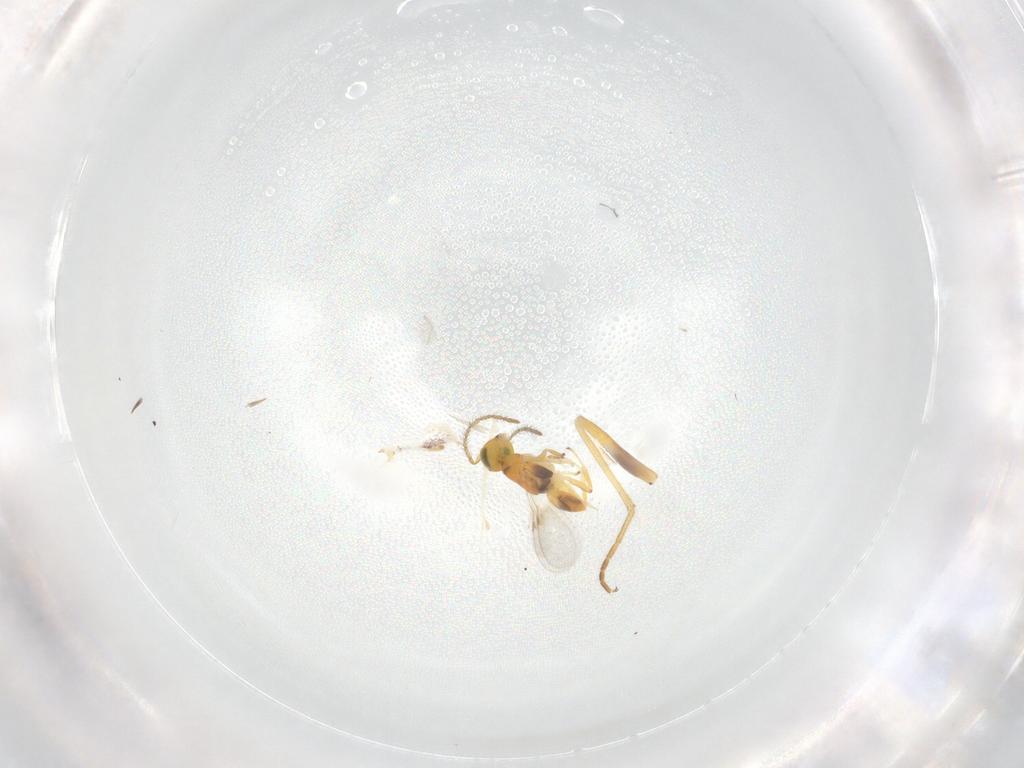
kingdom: Animalia
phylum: Arthropoda
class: Insecta
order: Hymenoptera
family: Vespidae
